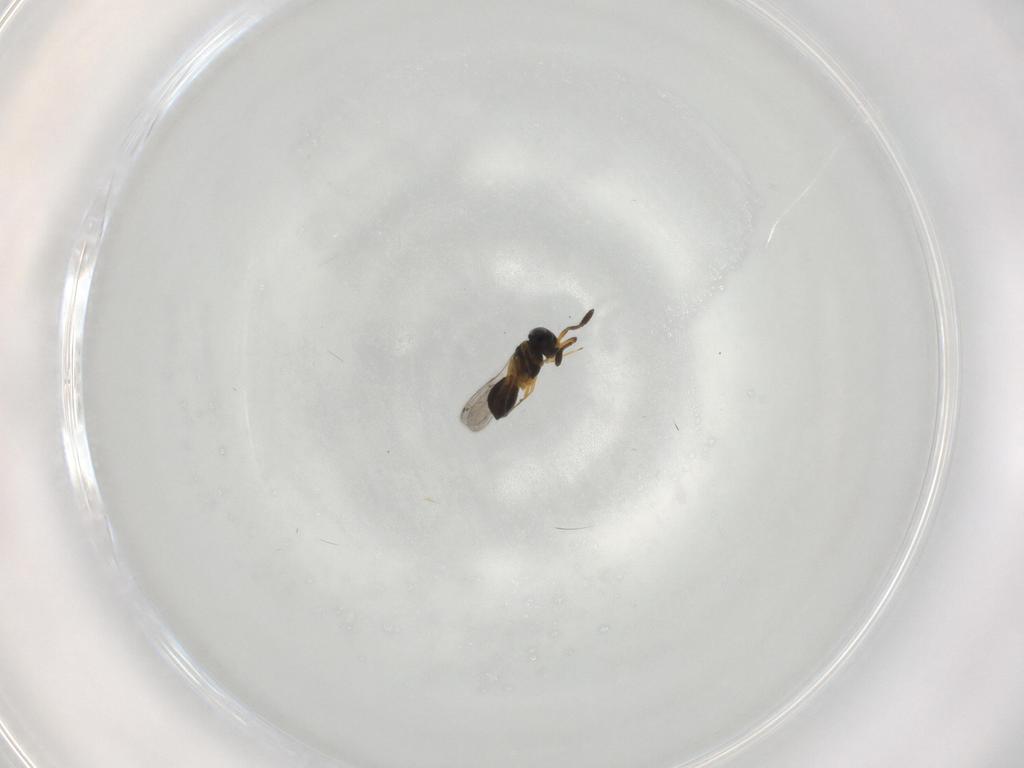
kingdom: Animalia
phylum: Arthropoda
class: Insecta
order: Hymenoptera
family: Scelionidae
